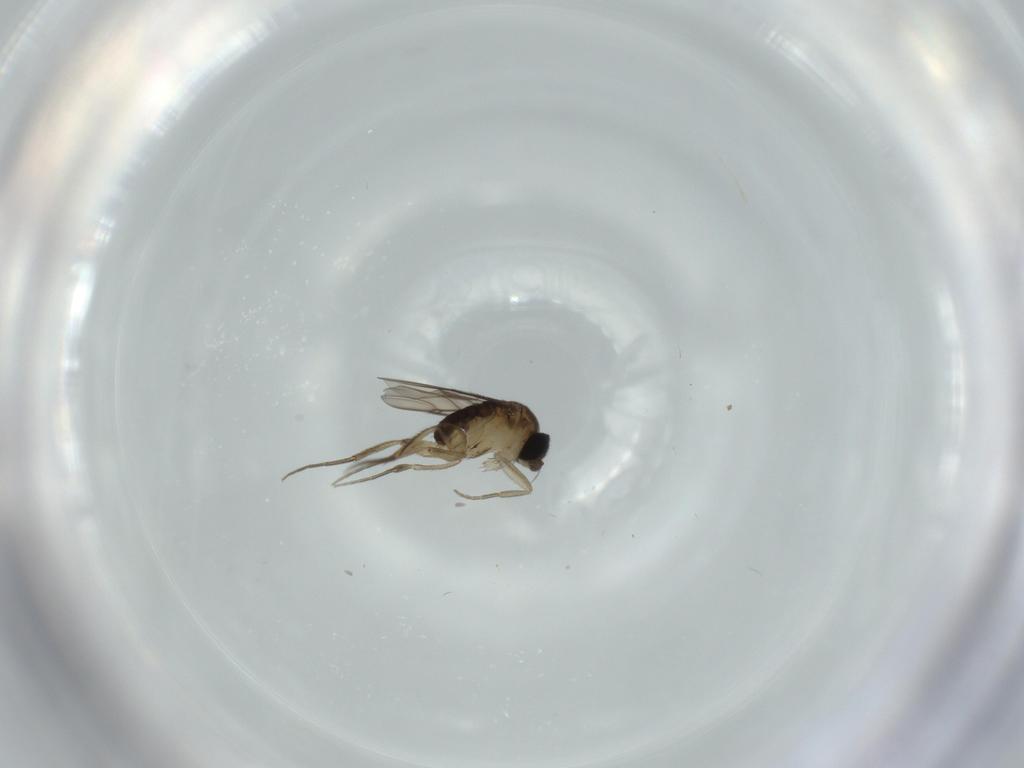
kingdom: Animalia
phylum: Arthropoda
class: Insecta
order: Diptera
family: Phoridae
